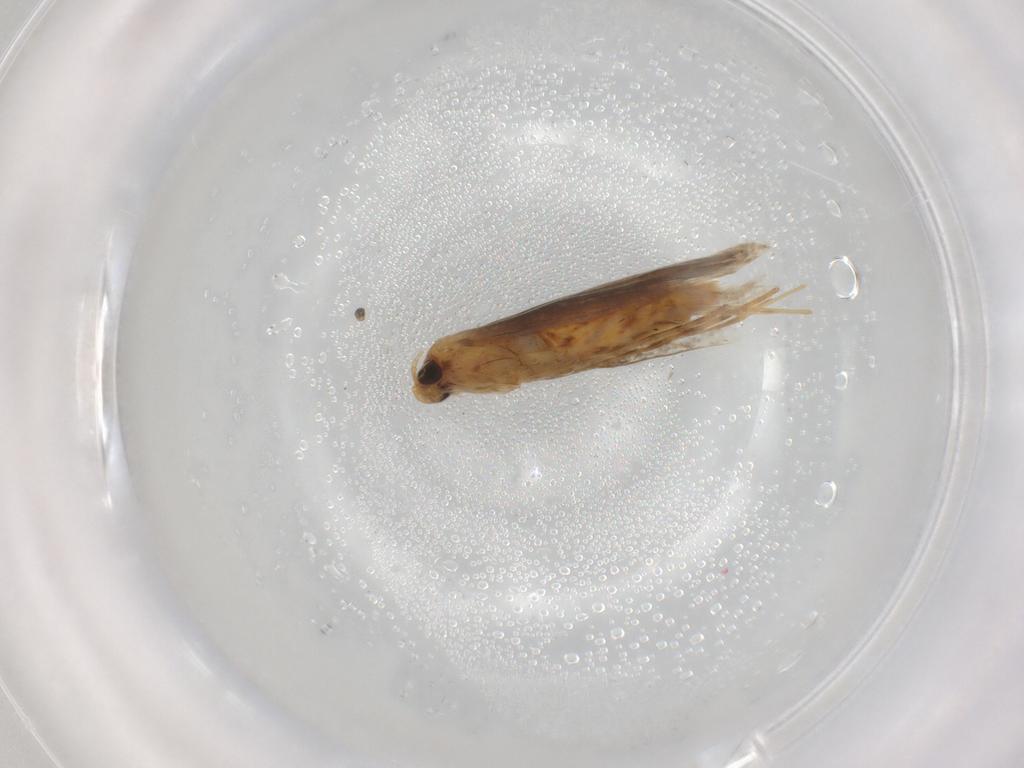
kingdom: Animalia
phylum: Arthropoda
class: Insecta
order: Lepidoptera
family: Gracillariidae
